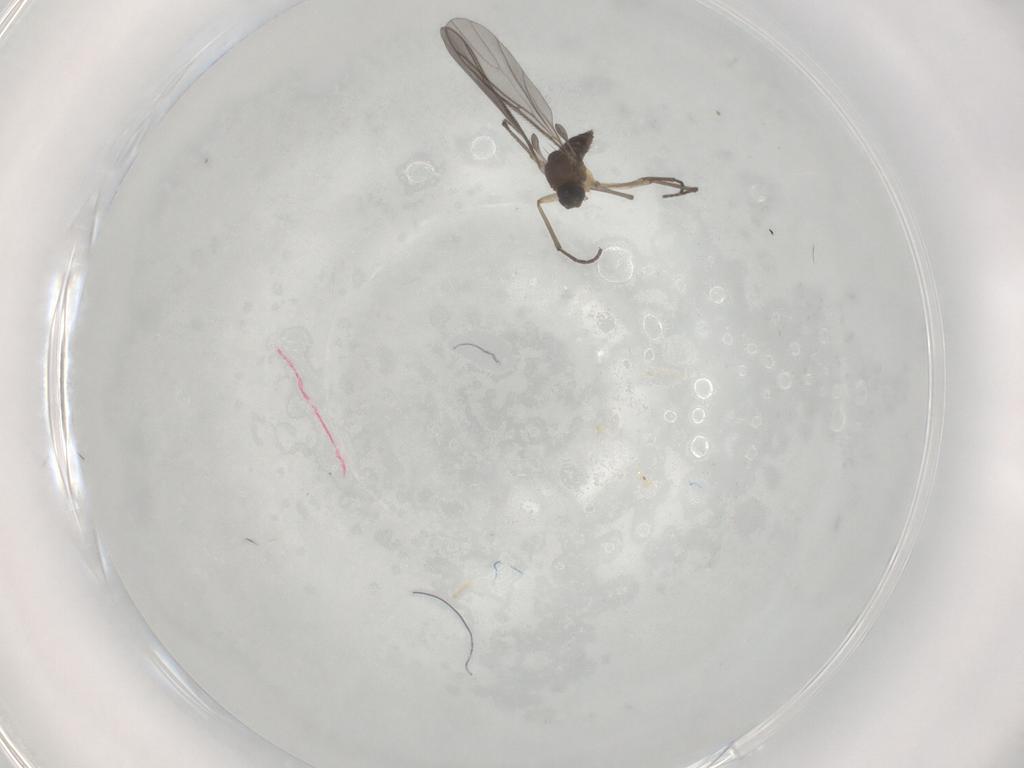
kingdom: Animalia
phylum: Arthropoda
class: Insecta
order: Diptera
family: Sciaridae
